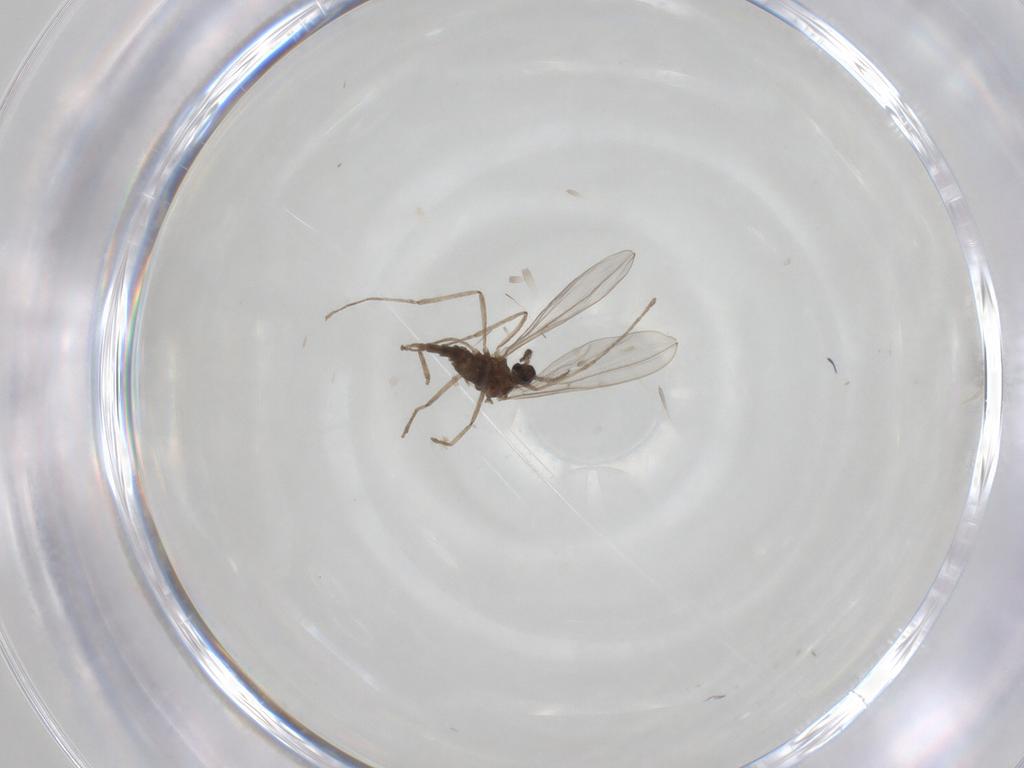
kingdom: Animalia
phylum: Arthropoda
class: Insecta
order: Diptera
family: Cecidomyiidae
